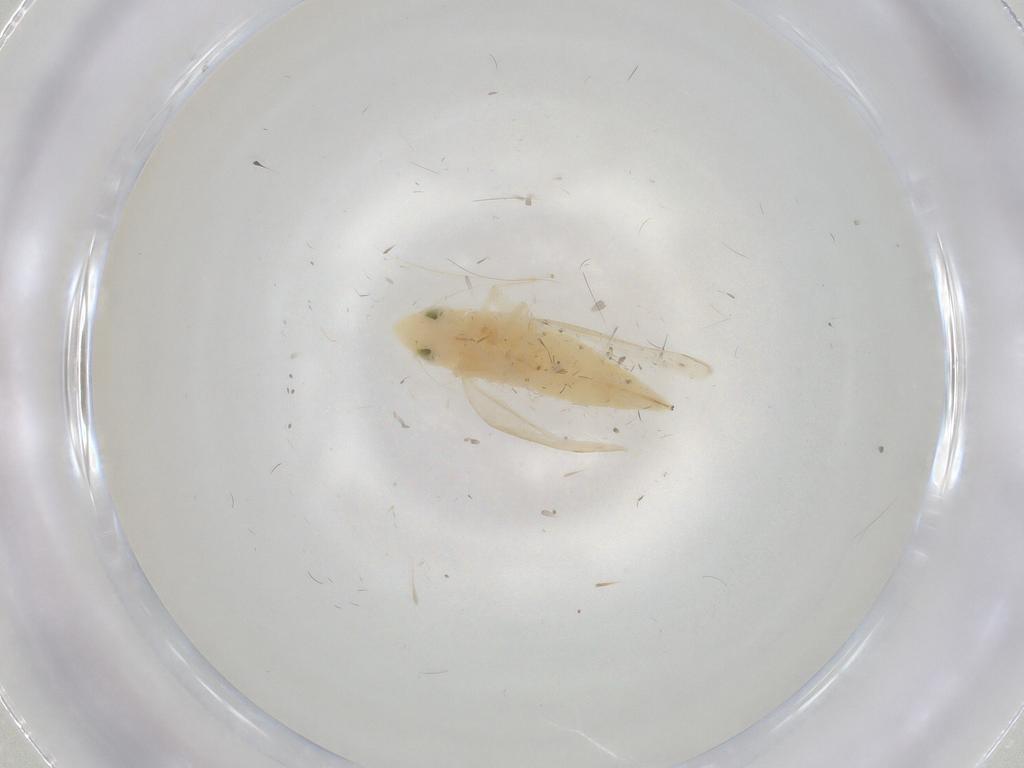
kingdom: Animalia
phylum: Arthropoda
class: Insecta
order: Hemiptera
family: Cicadellidae
